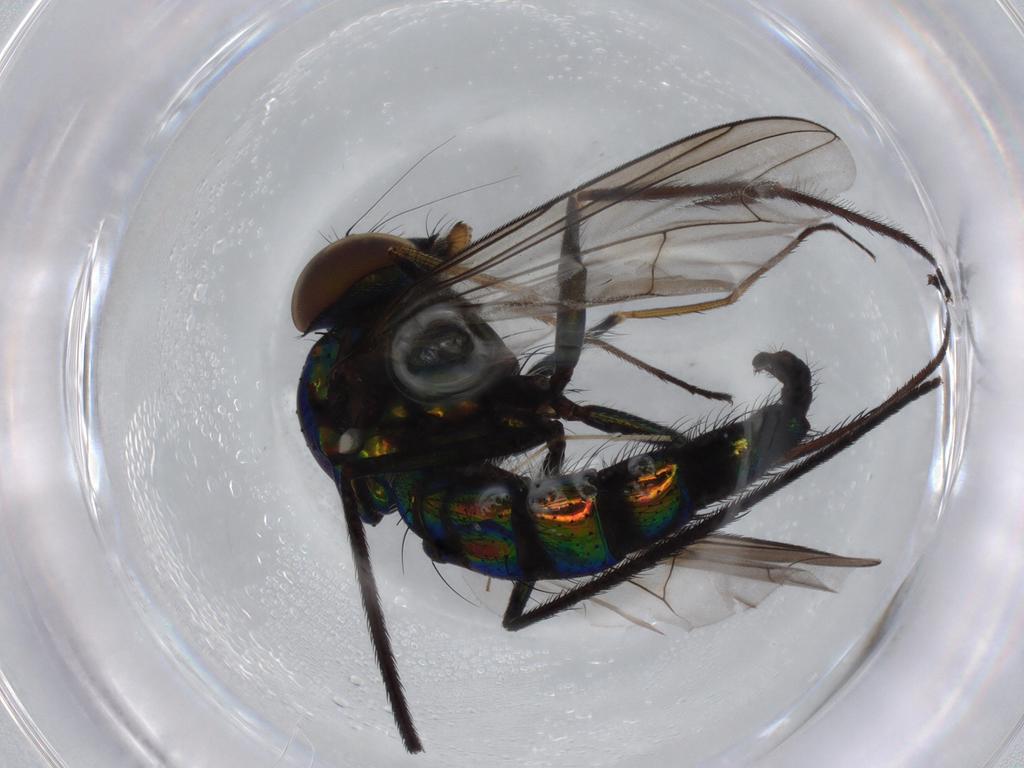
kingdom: Animalia
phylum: Arthropoda
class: Insecta
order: Diptera
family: Dolichopodidae
